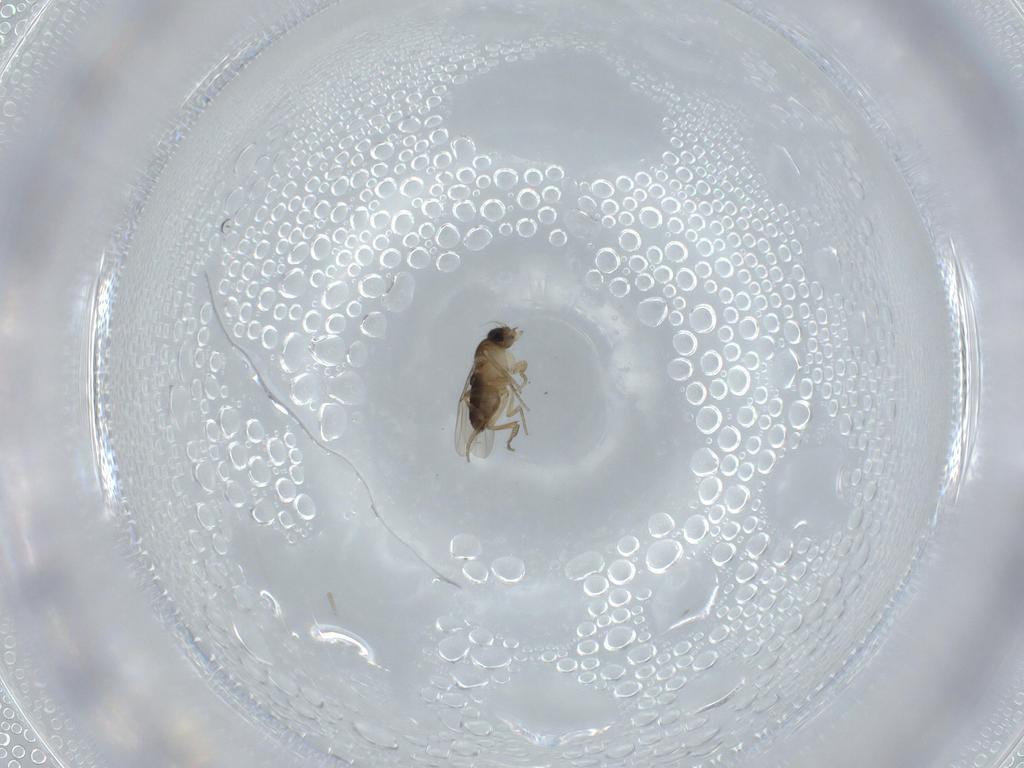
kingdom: Animalia
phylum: Arthropoda
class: Insecta
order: Diptera
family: Phoridae
